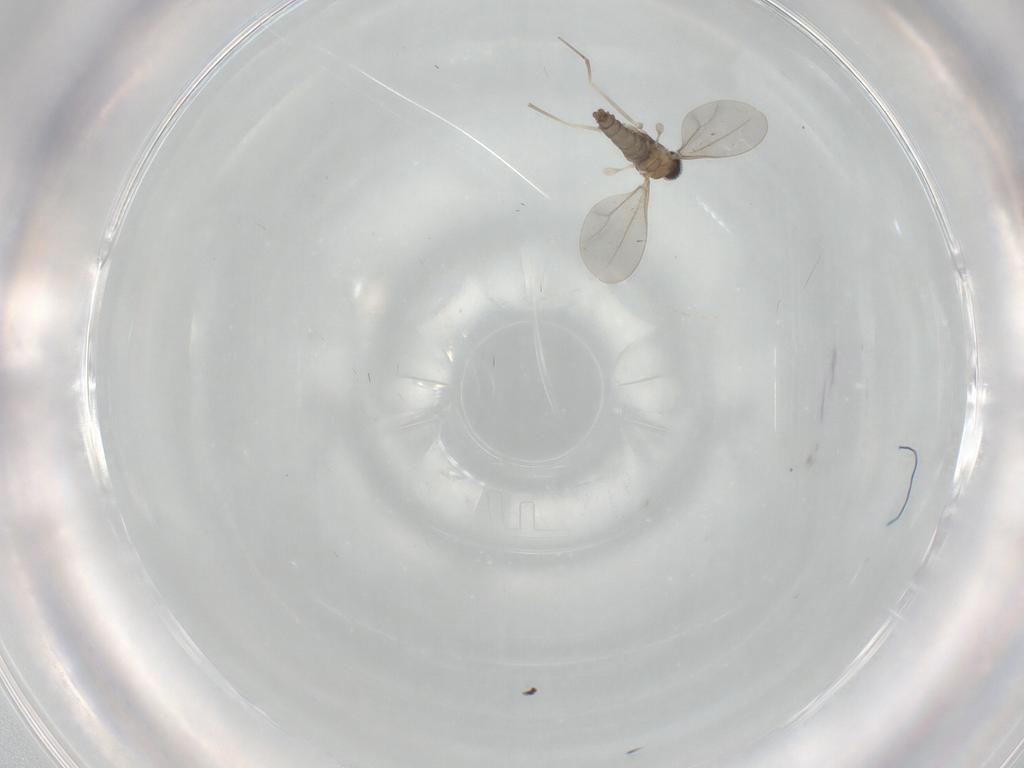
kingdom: Animalia
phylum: Arthropoda
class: Insecta
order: Diptera
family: Cecidomyiidae
